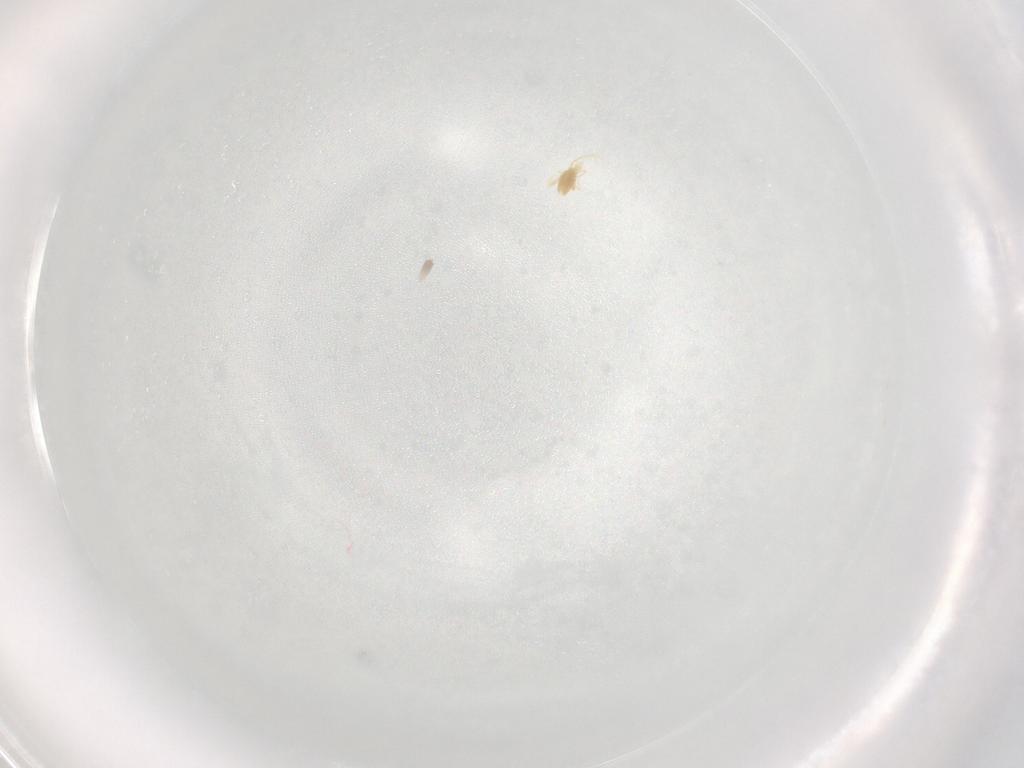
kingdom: Animalia
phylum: Arthropoda
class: Arachnida
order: Trombidiformes
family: Eupodidae
